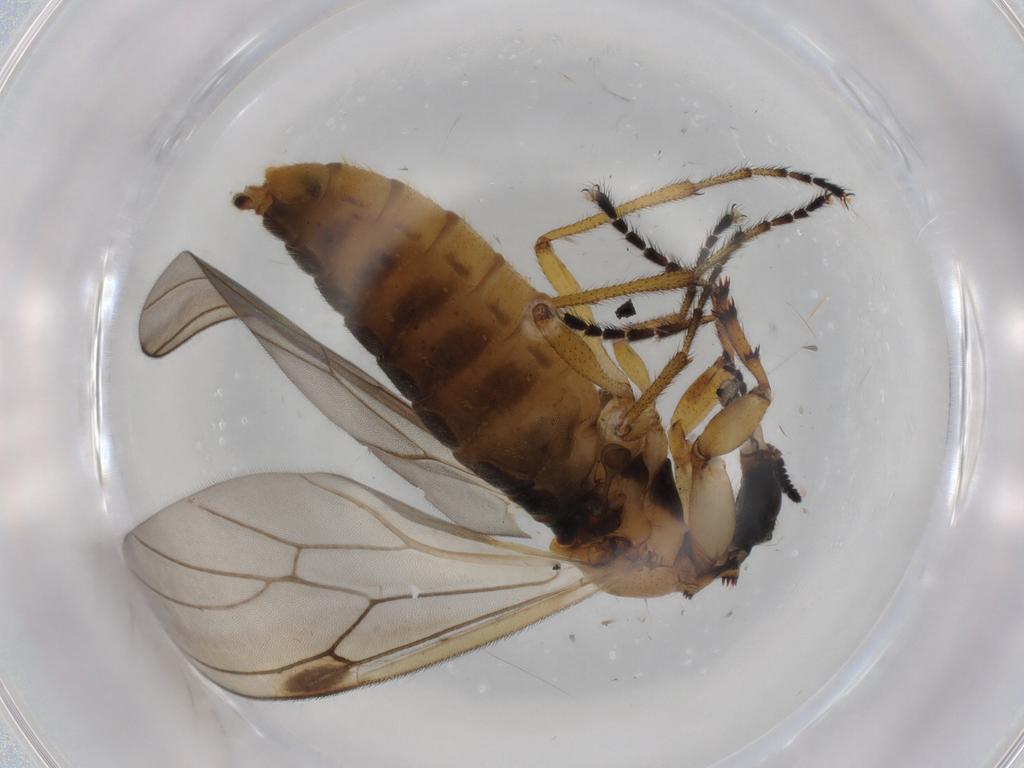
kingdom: Animalia
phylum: Arthropoda
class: Insecta
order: Diptera
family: Bibionidae
